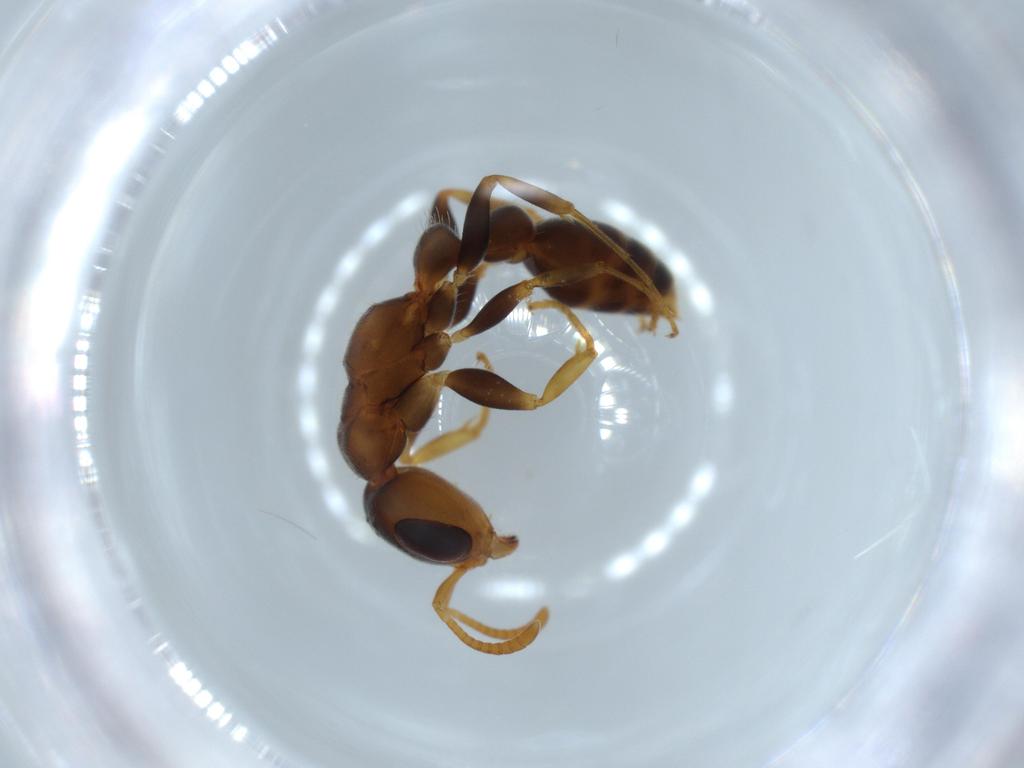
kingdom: Animalia
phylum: Arthropoda
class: Insecta
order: Hymenoptera
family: Formicidae
